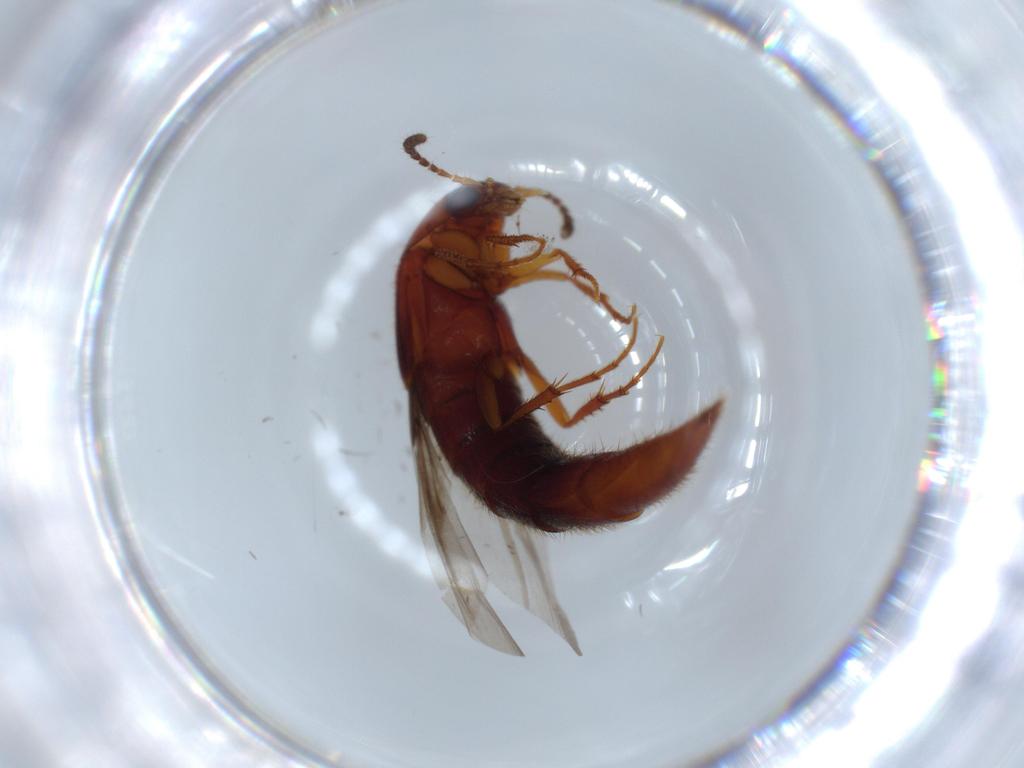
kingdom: Animalia
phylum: Arthropoda
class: Insecta
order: Coleoptera
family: Staphylinidae
